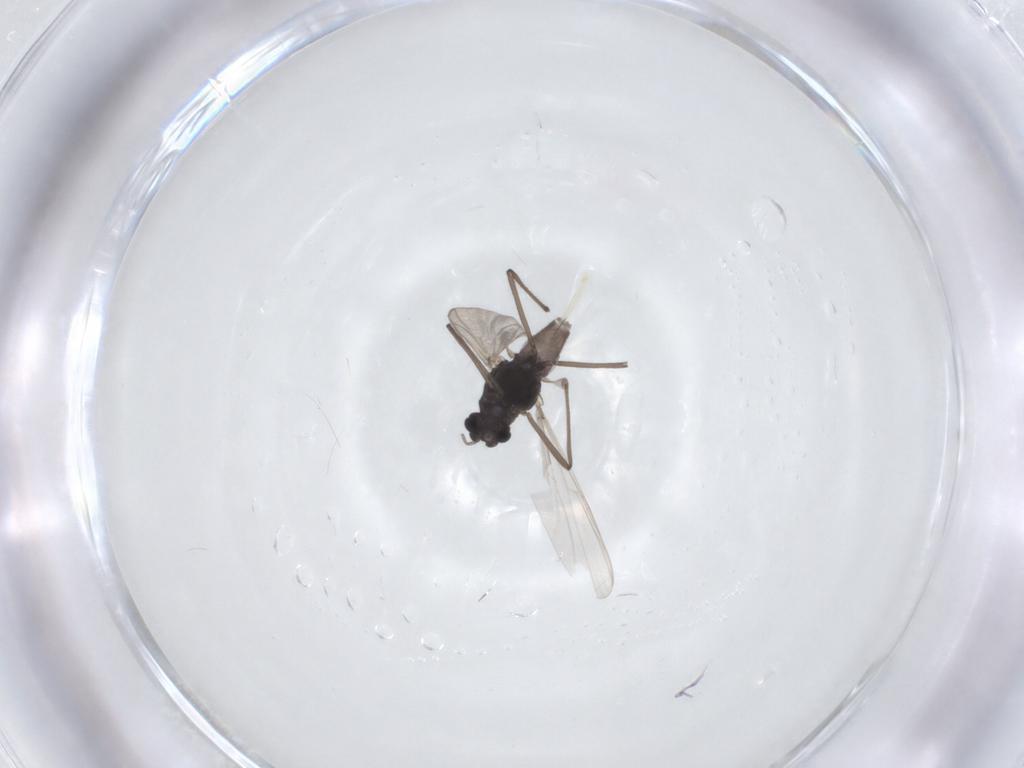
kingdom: Animalia
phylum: Arthropoda
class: Insecta
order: Diptera
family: Chironomidae
